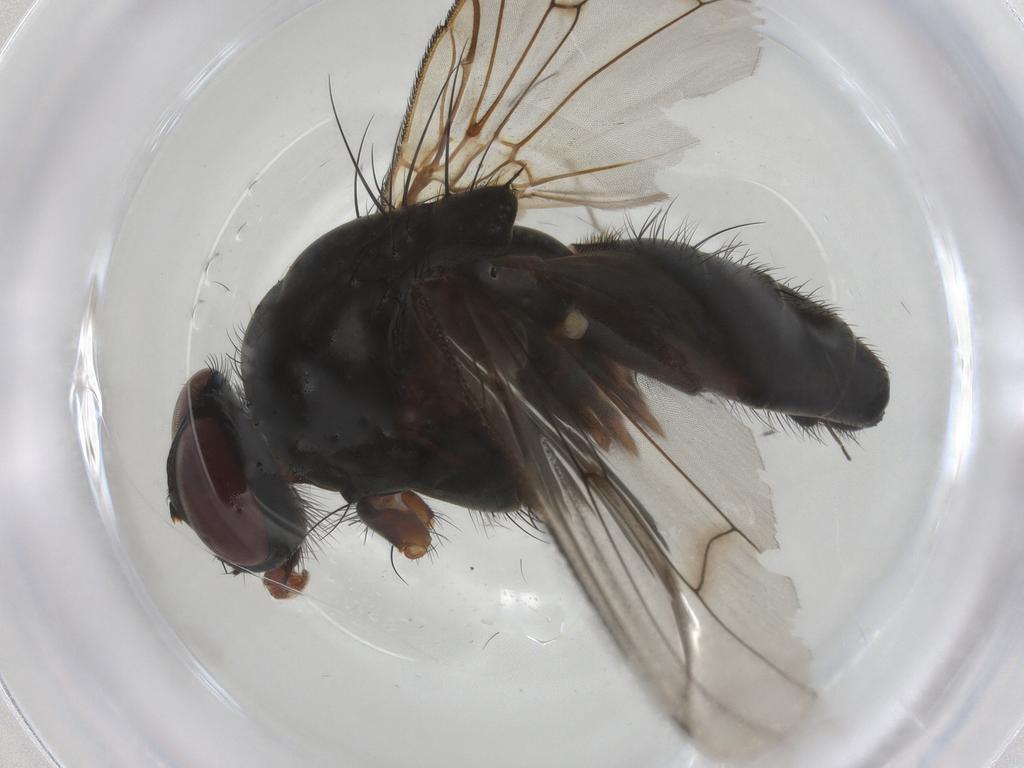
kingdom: Animalia
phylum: Arthropoda
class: Insecta
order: Diptera
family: Anthomyiidae
